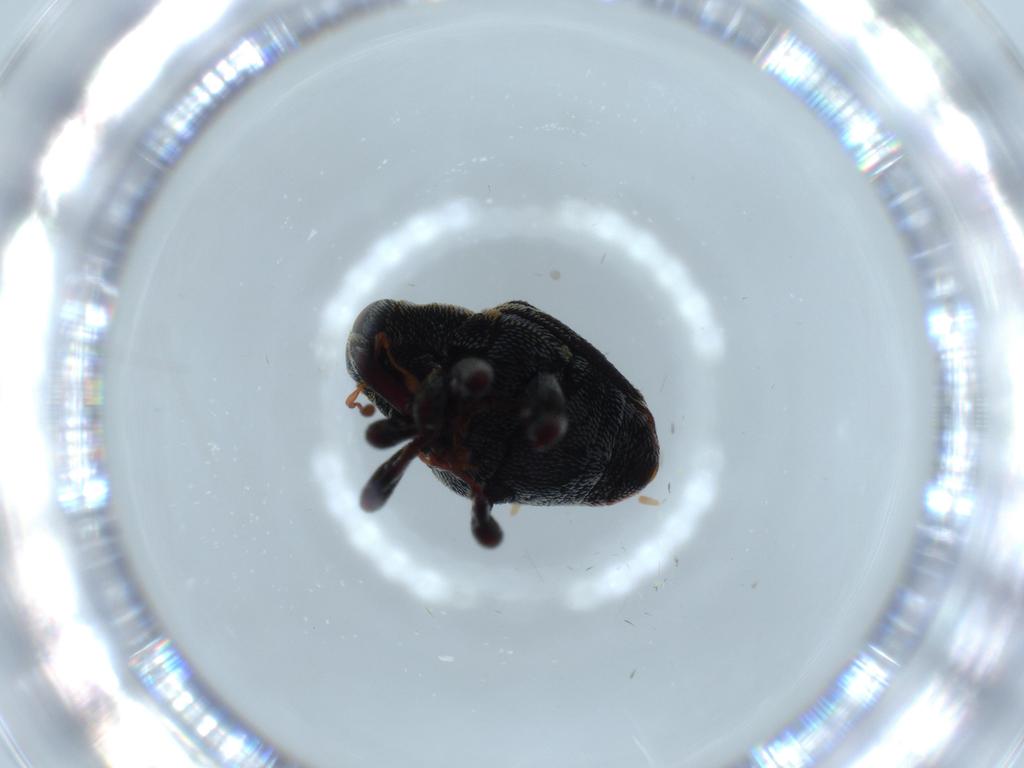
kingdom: Animalia
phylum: Arthropoda
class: Insecta
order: Coleoptera
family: Curculionidae
